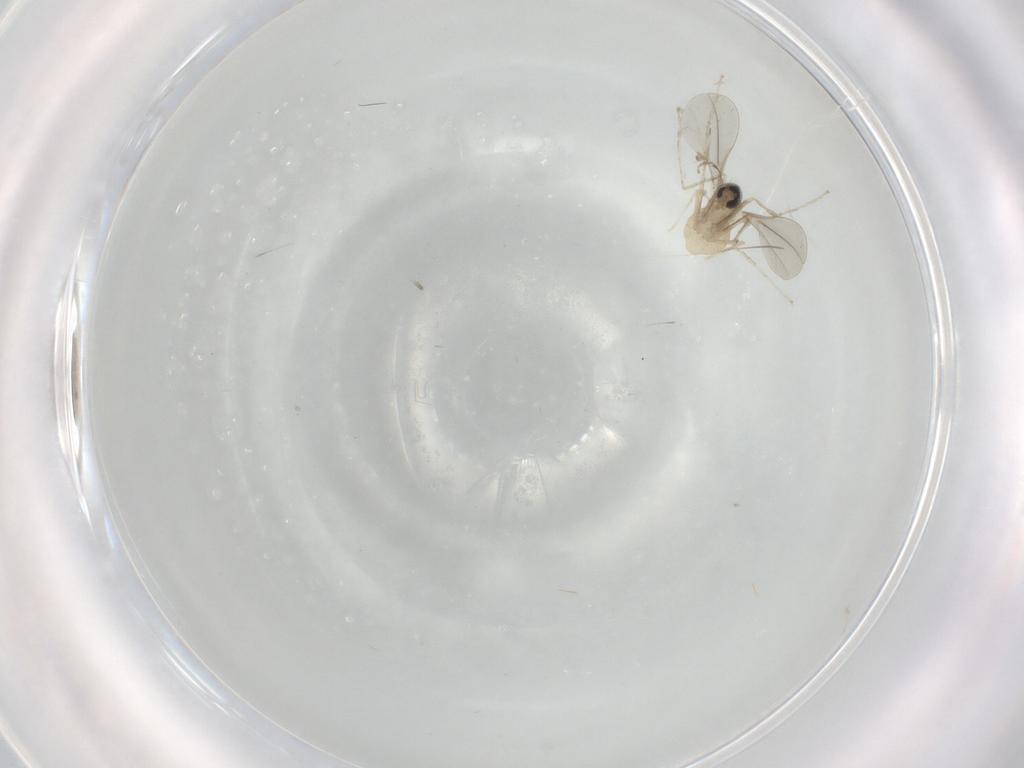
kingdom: Animalia
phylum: Arthropoda
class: Insecta
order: Diptera
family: Cecidomyiidae
